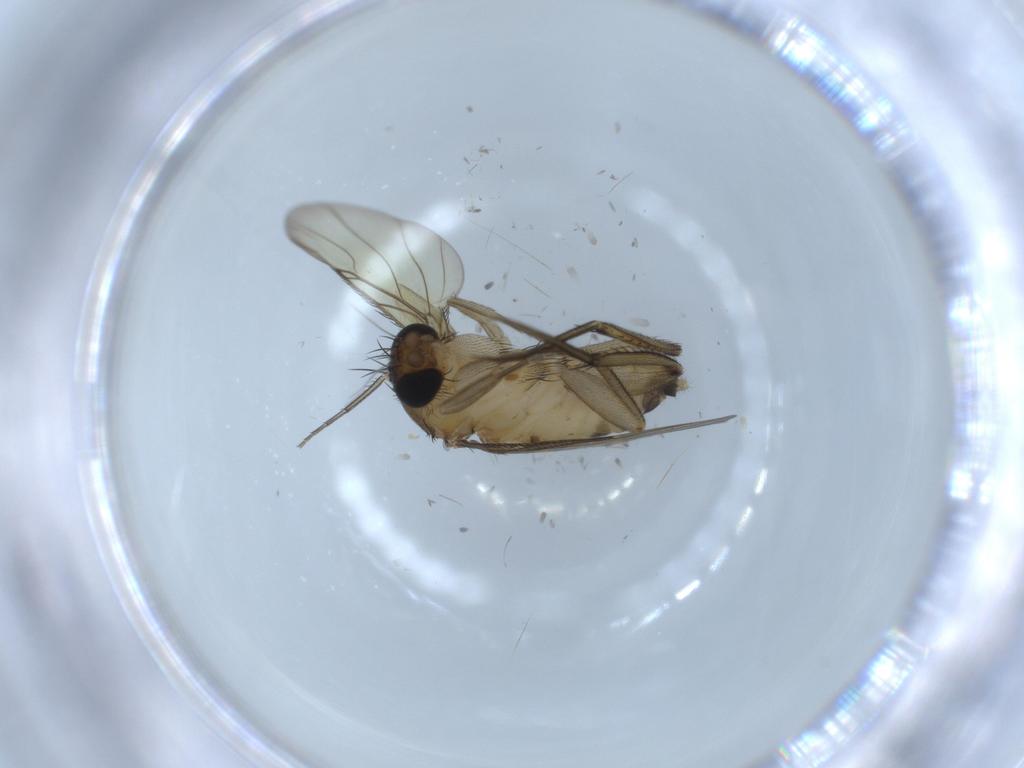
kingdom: Animalia
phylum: Arthropoda
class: Insecta
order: Diptera
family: Phoridae
